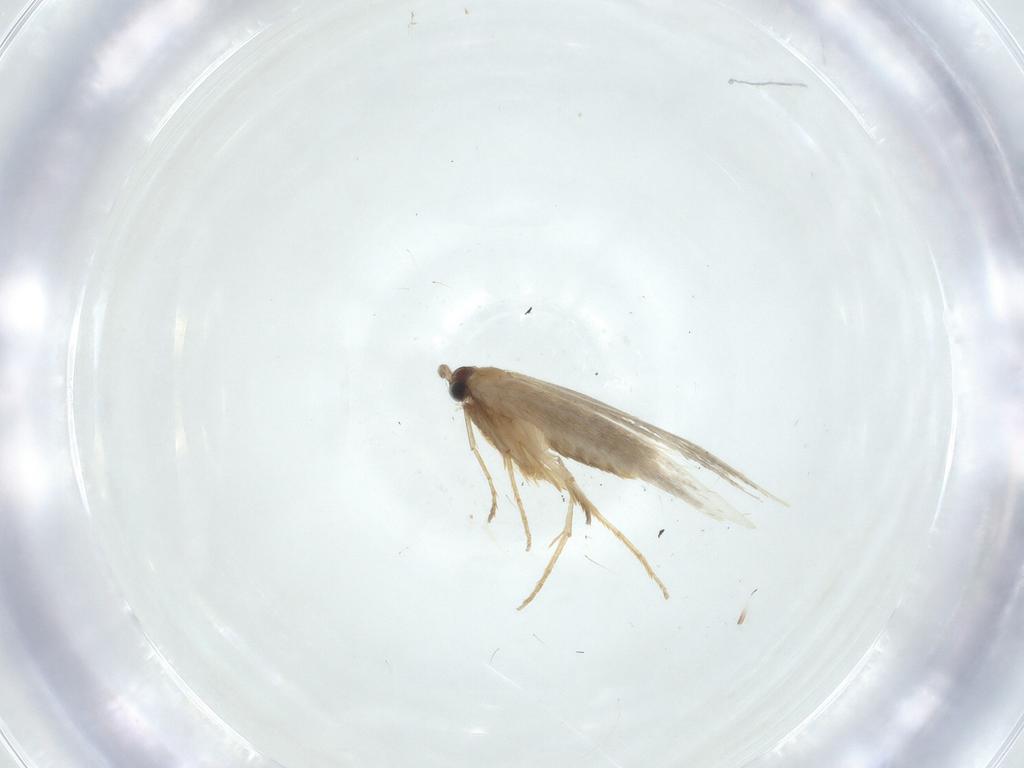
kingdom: Animalia
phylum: Arthropoda
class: Insecta
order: Lepidoptera
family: Tineidae
